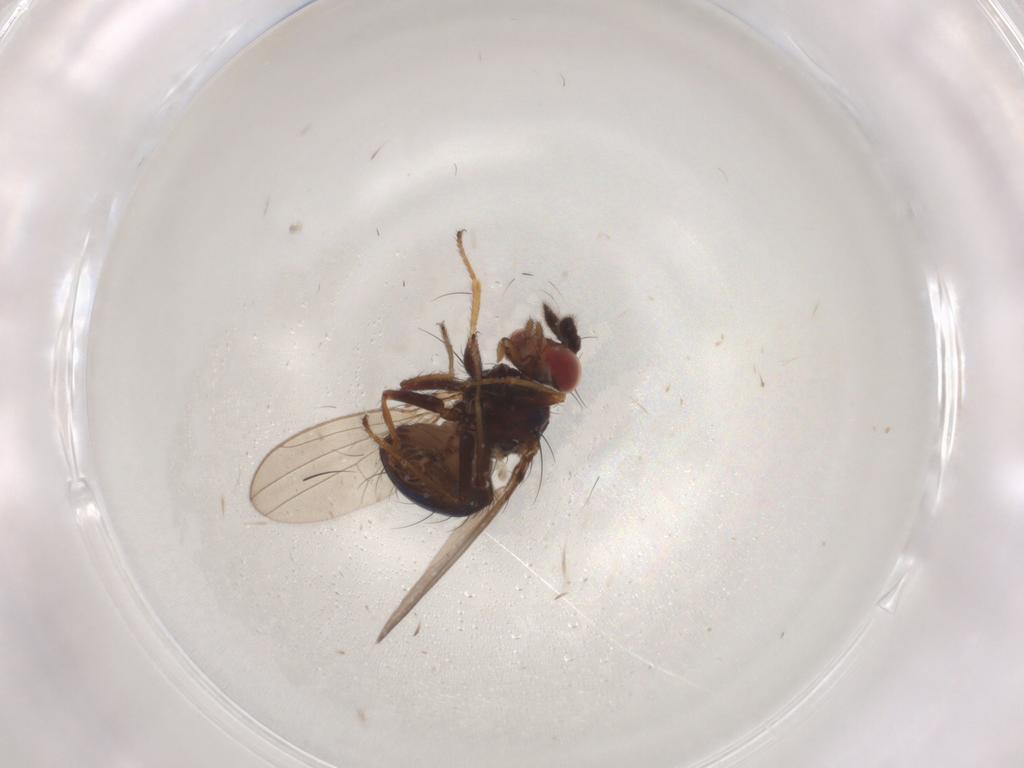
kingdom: Animalia
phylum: Arthropoda
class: Insecta
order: Diptera
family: Ephydridae
